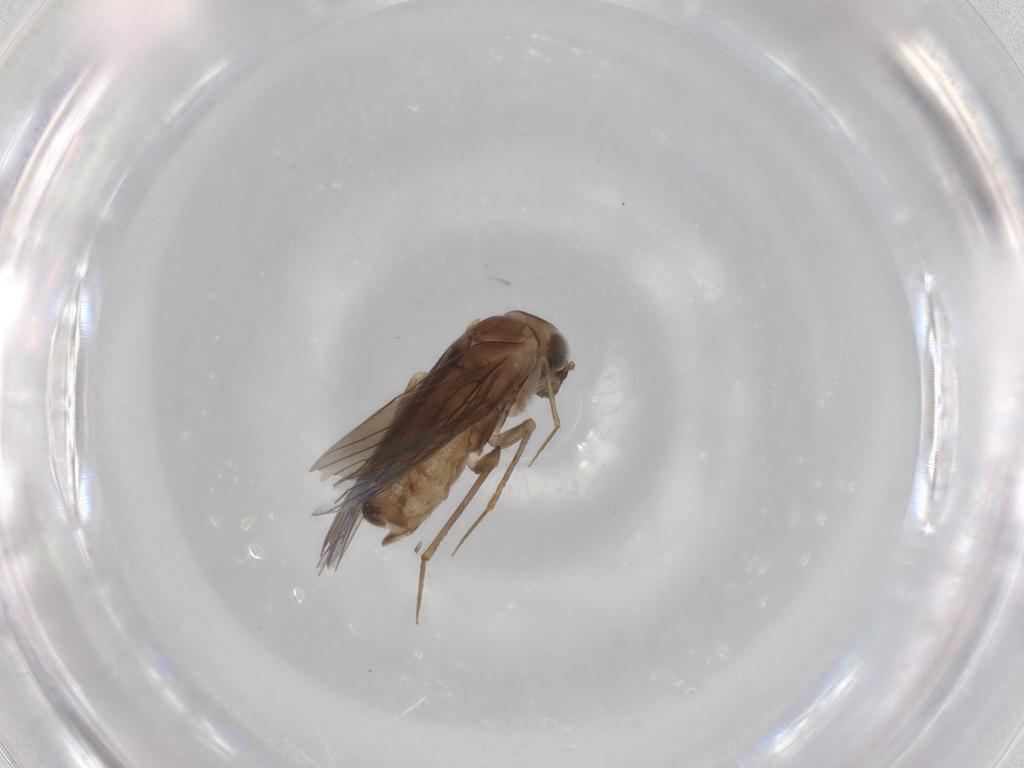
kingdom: Animalia
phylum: Arthropoda
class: Insecta
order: Psocodea
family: Lepidopsocidae
